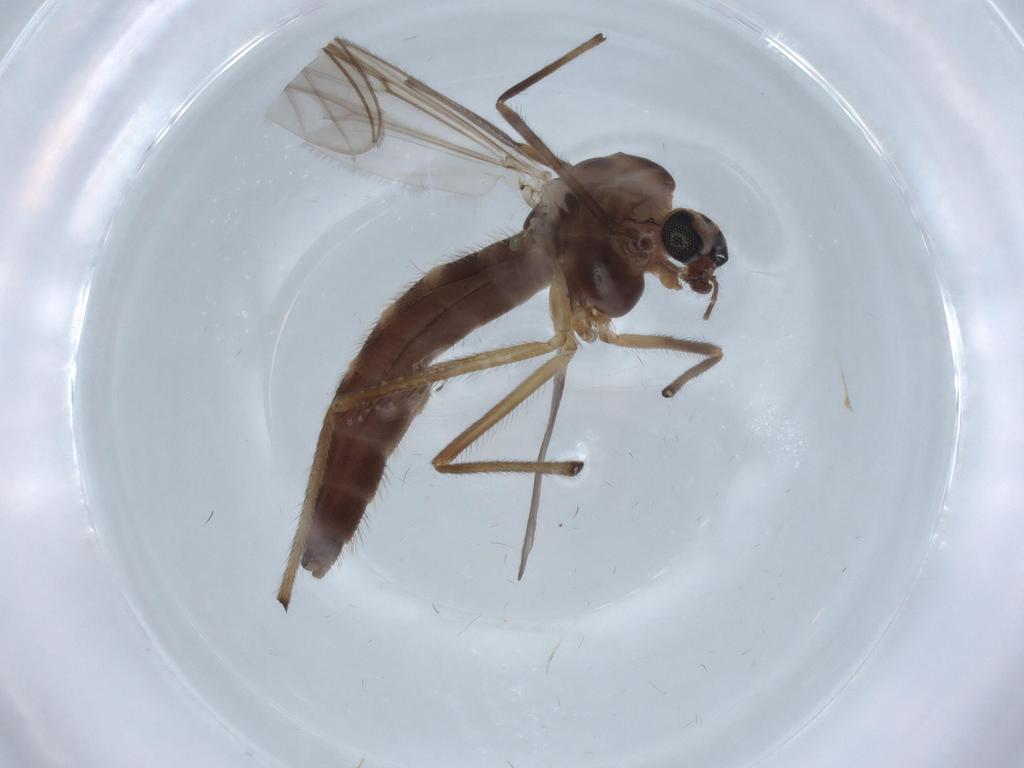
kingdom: Animalia
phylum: Arthropoda
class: Insecta
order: Diptera
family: Chironomidae
